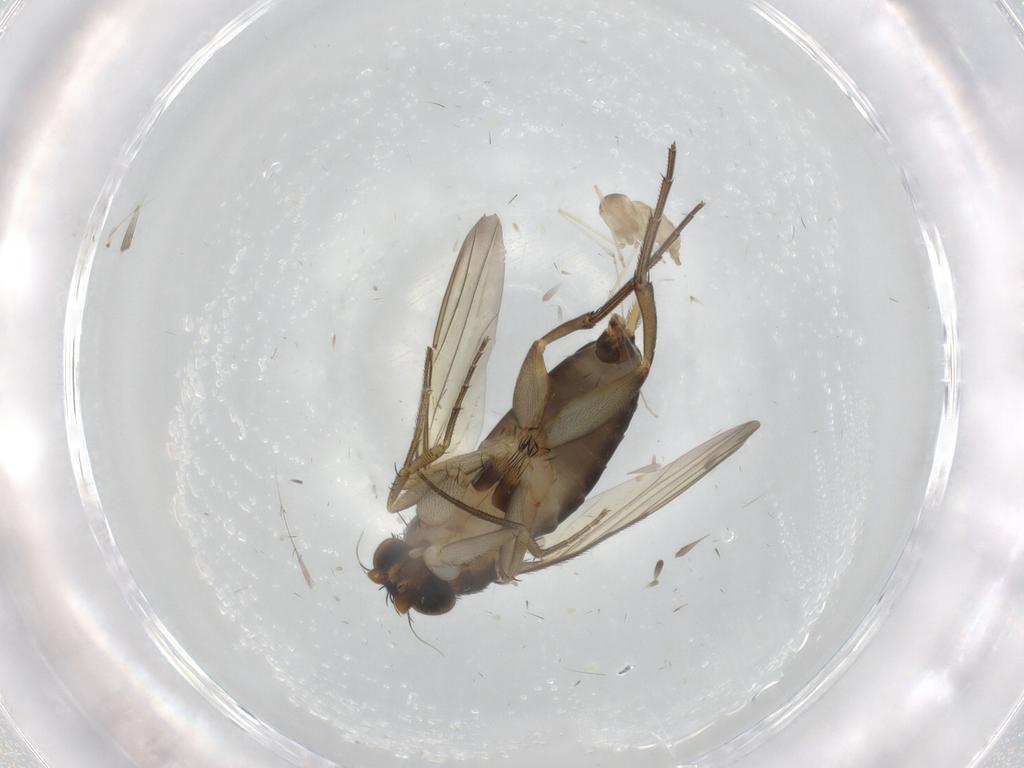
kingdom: Animalia
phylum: Arthropoda
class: Insecta
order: Diptera
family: Phoridae
